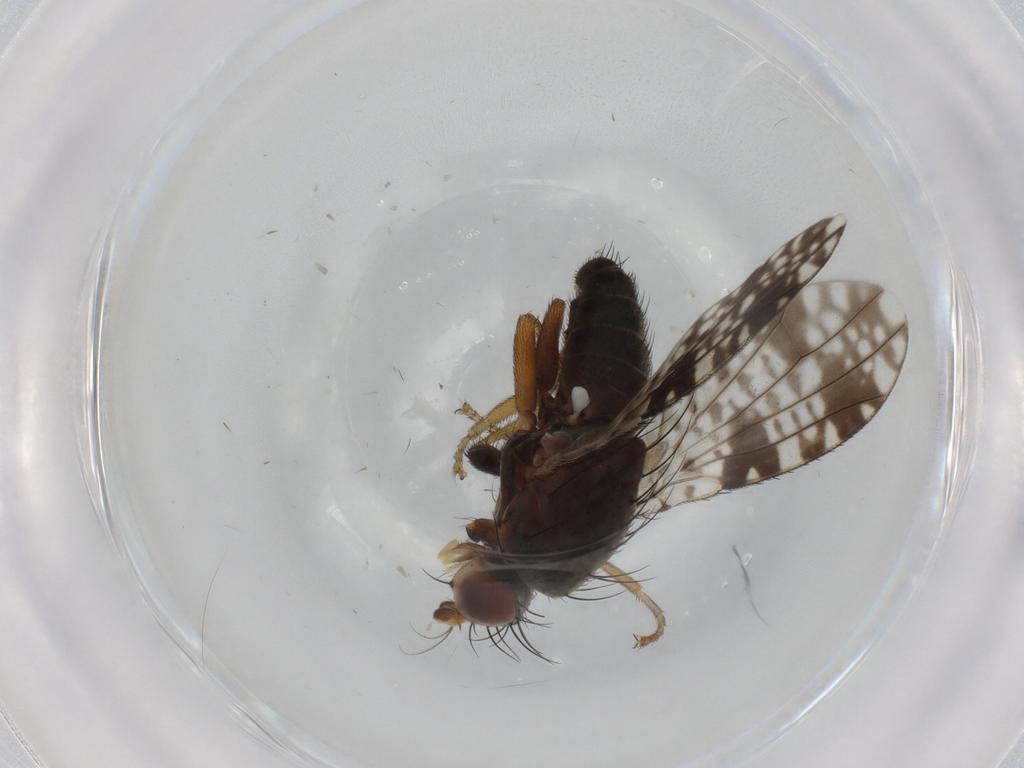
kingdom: Animalia
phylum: Arthropoda
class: Insecta
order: Diptera
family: Tephritidae
